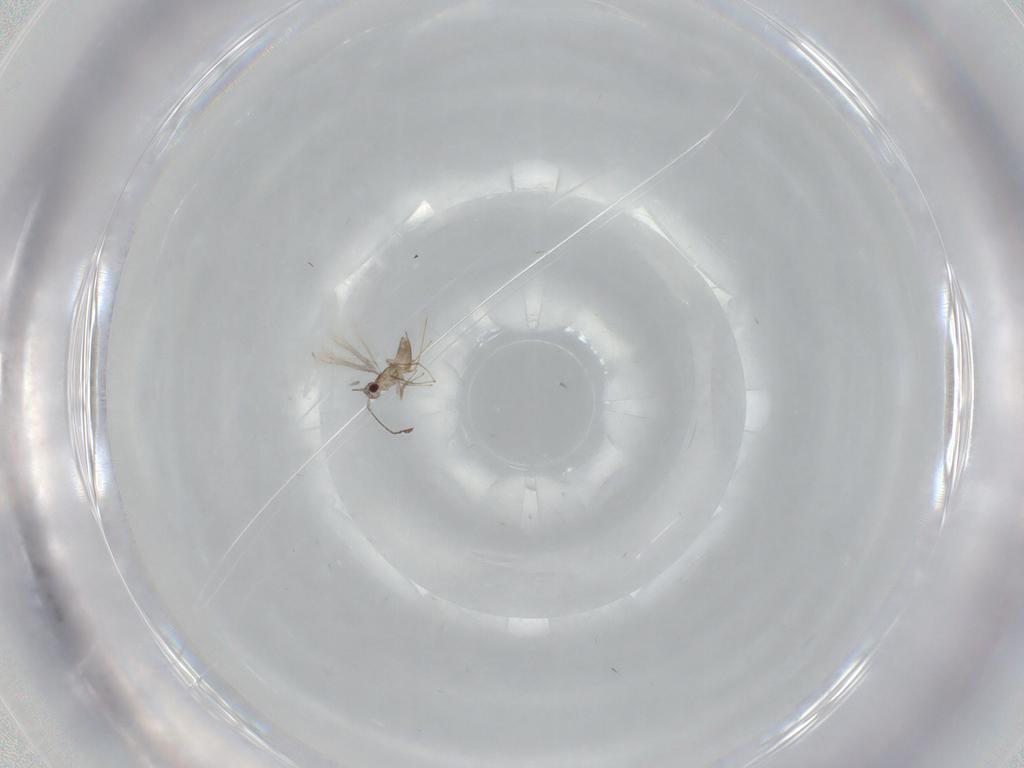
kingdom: Animalia
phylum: Arthropoda
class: Insecta
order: Hymenoptera
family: Mymaridae
